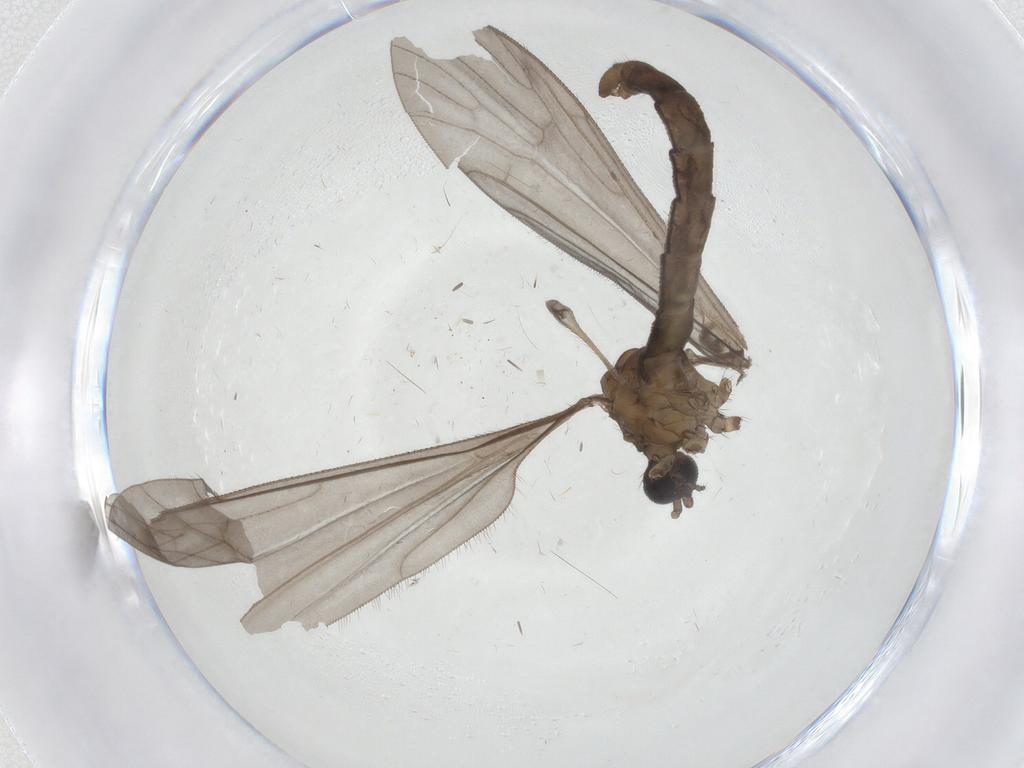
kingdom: Animalia
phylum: Arthropoda
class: Insecta
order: Diptera
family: Chironomidae
